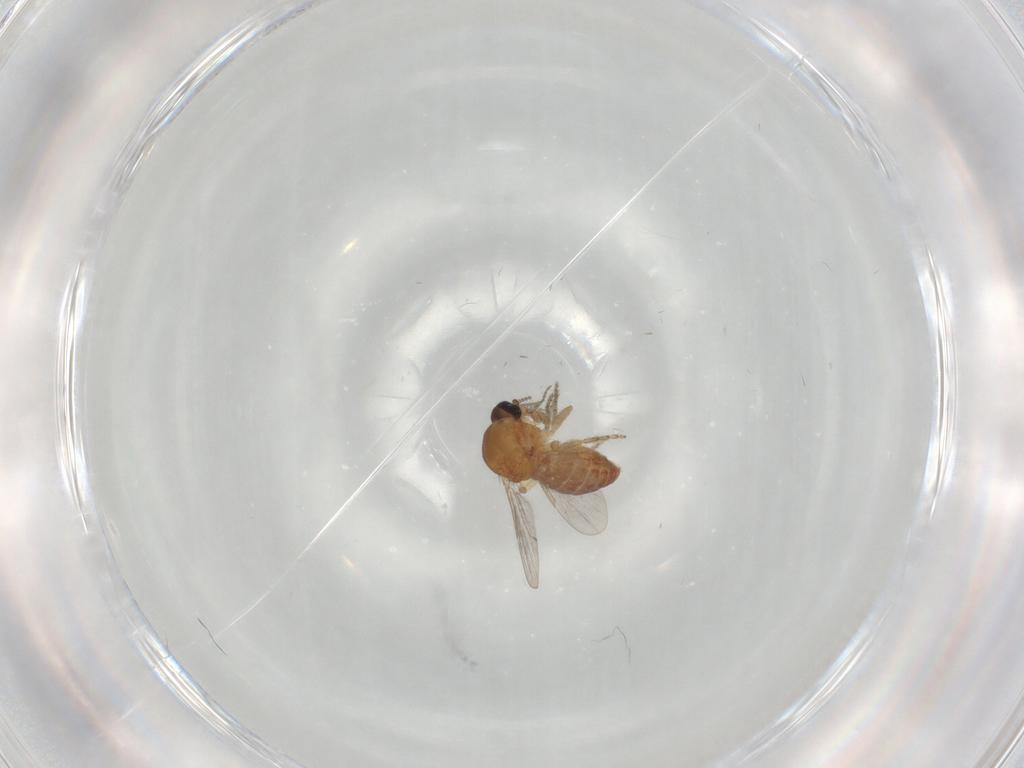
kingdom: Animalia
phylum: Arthropoda
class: Insecta
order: Diptera
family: Ceratopogonidae
